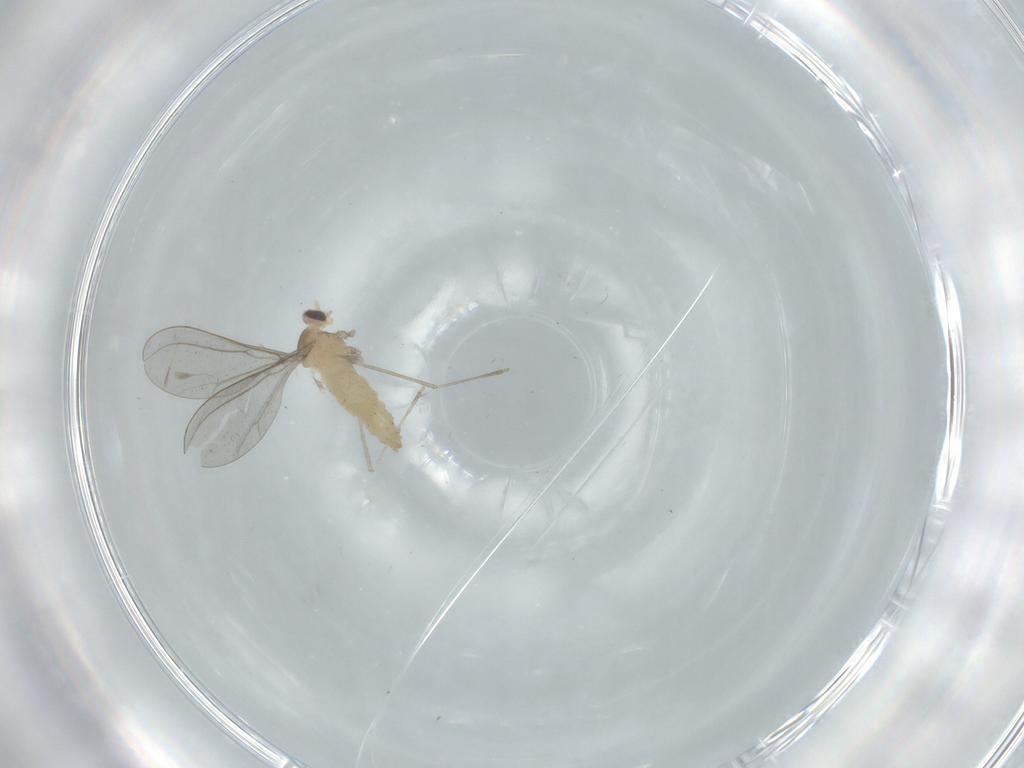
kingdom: Animalia
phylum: Arthropoda
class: Insecta
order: Diptera
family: Cecidomyiidae
